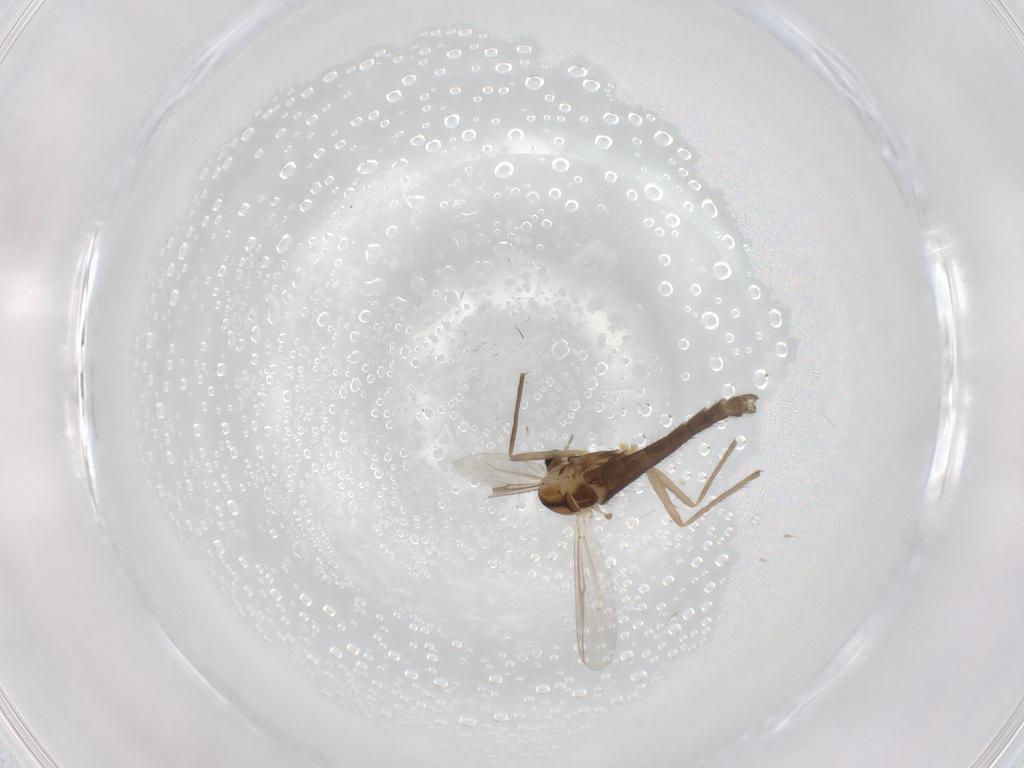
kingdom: Animalia
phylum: Arthropoda
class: Insecta
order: Diptera
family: Chironomidae
